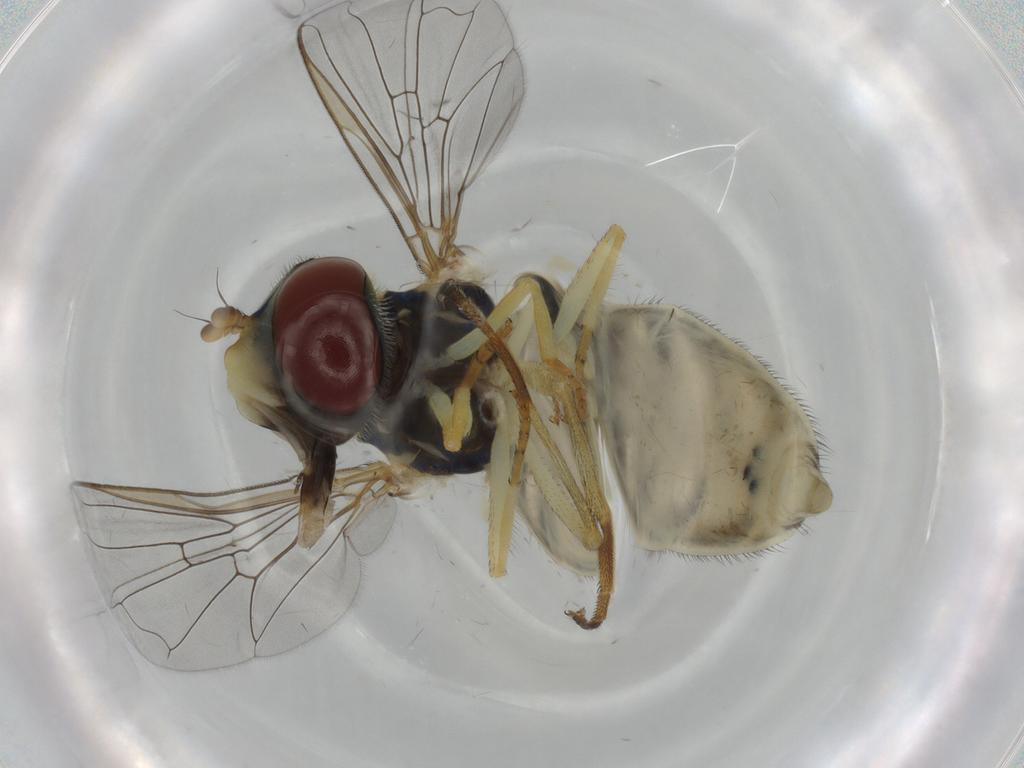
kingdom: Animalia
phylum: Arthropoda
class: Insecta
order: Diptera
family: Syrphidae
